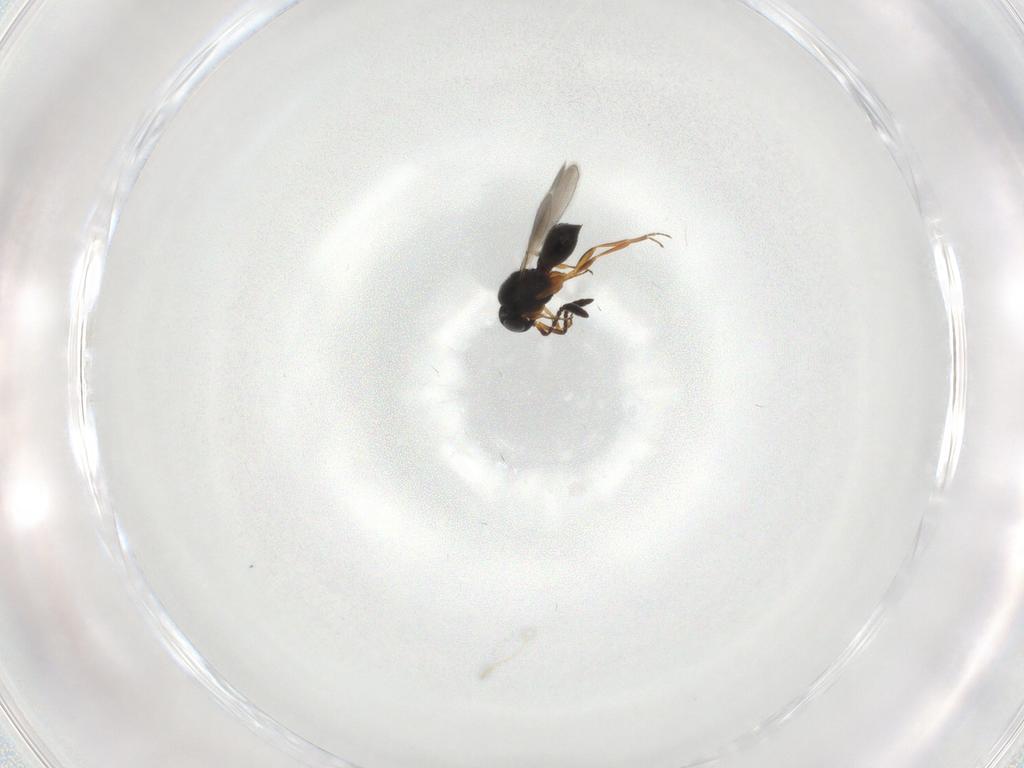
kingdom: Animalia
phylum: Arthropoda
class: Insecta
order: Hymenoptera
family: Scelionidae
